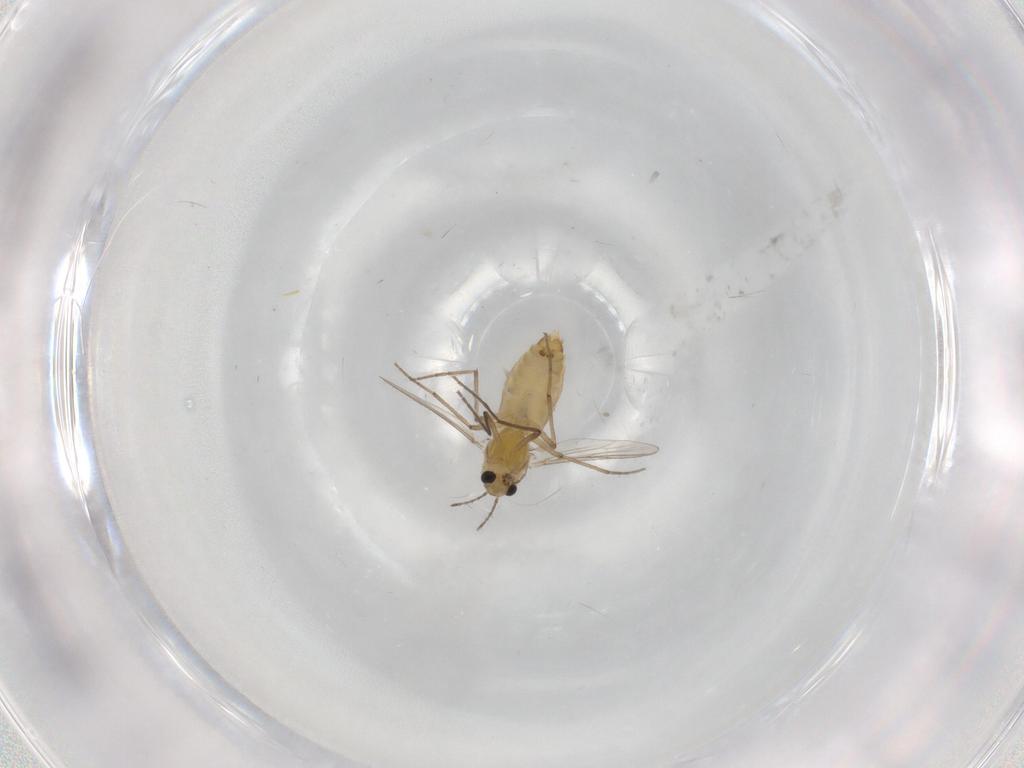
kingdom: Animalia
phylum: Arthropoda
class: Insecta
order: Diptera
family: Chironomidae
